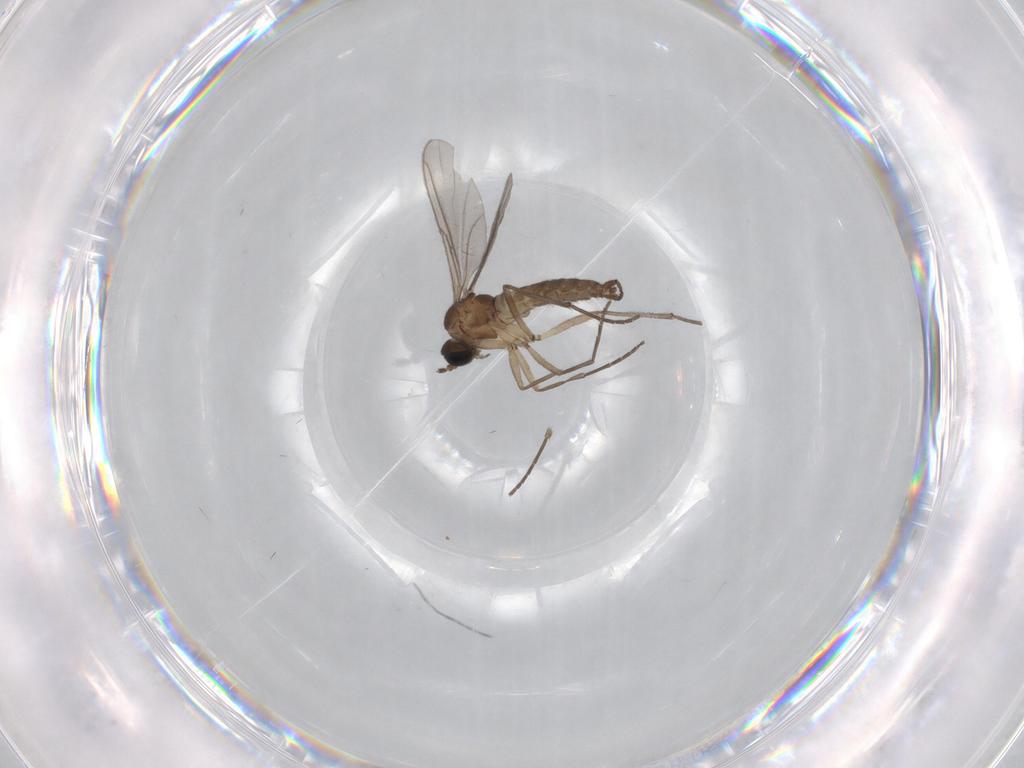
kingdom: Animalia
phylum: Arthropoda
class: Insecta
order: Diptera
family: Sciaridae
